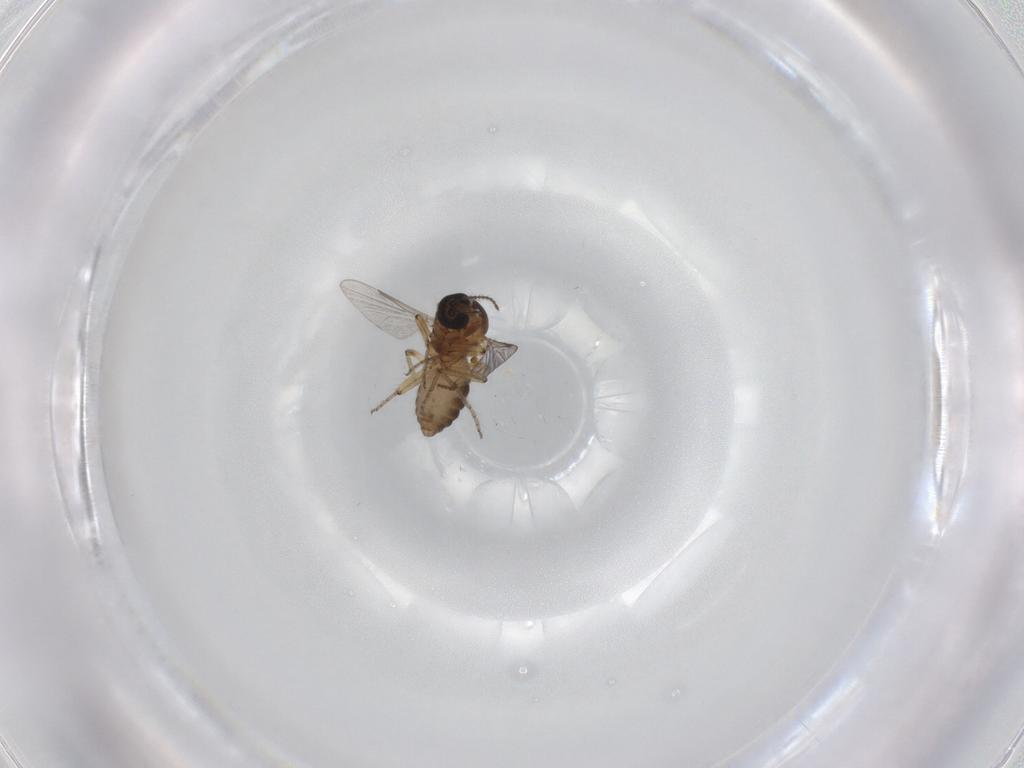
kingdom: Animalia
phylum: Arthropoda
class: Insecta
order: Diptera
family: Ceratopogonidae
